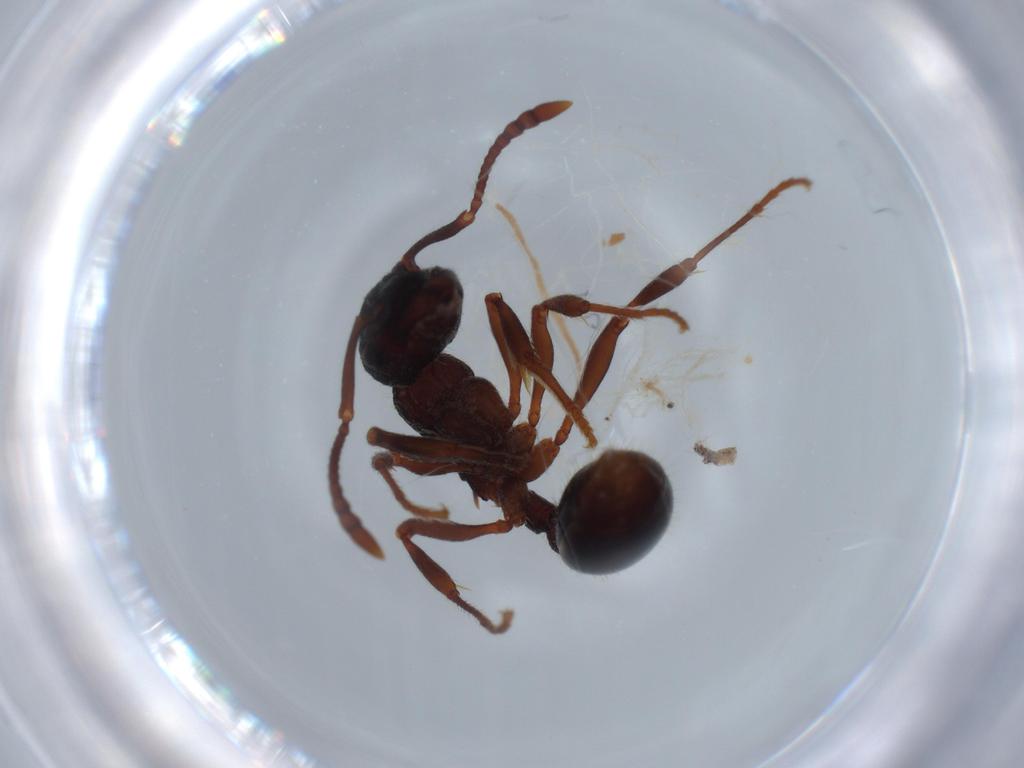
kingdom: Animalia
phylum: Arthropoda
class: Insecta
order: Hymenoptera
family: Formicidae
